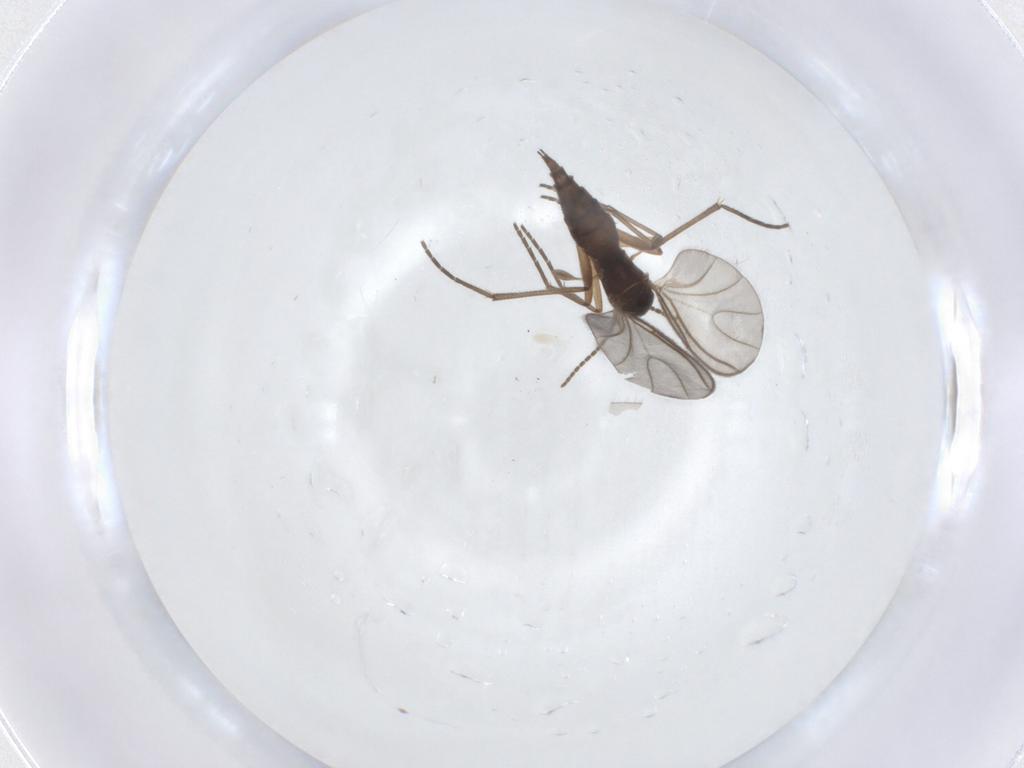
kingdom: Animalia
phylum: Arthropoda
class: Insecta
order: Diptera
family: Sciaridae
